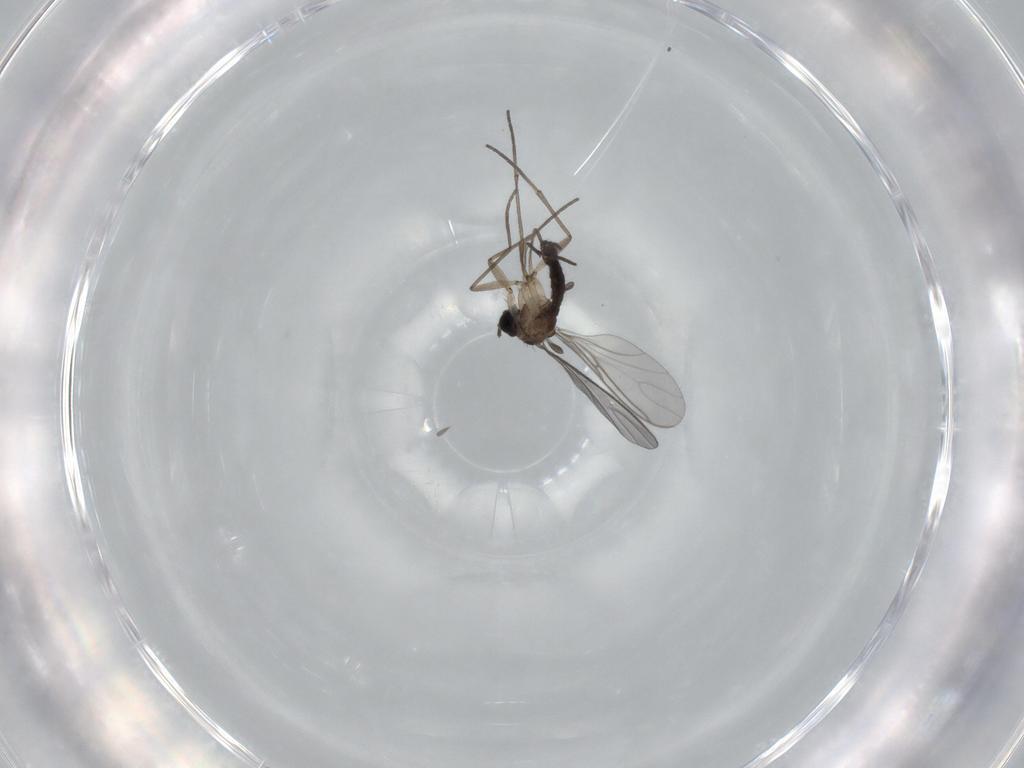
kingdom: Animalia
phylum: Arthropoda
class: Insecta
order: Diptera
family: Sciaridae
